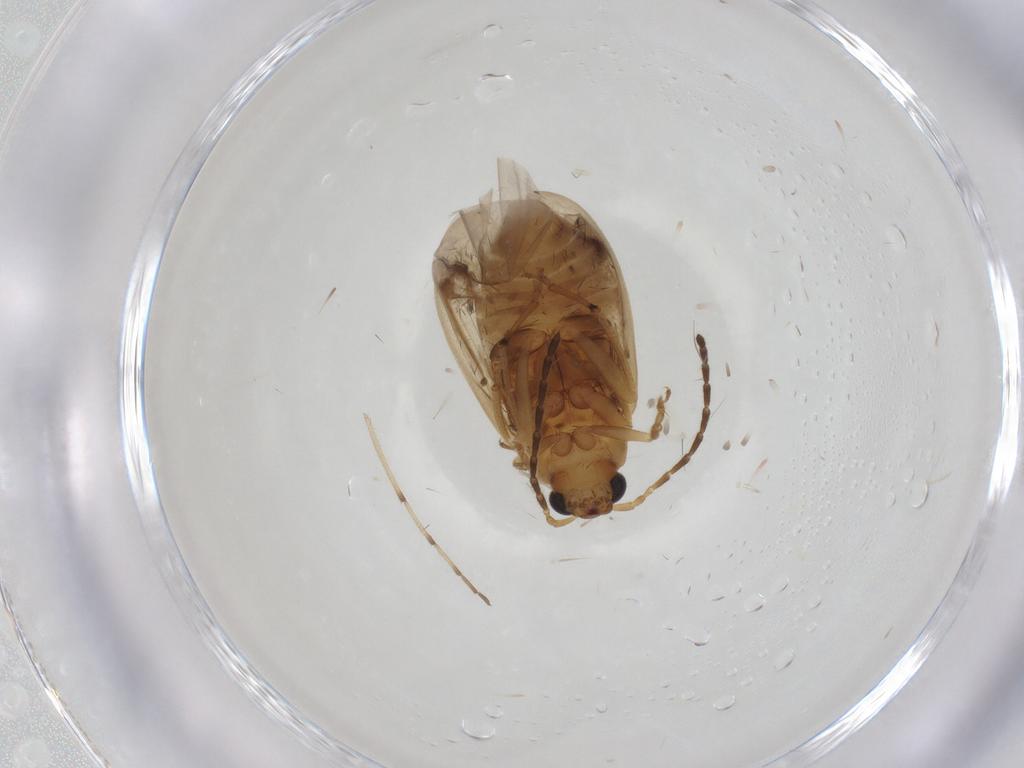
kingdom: Animalia
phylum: Arthropoda
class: Insecta
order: Coleoptera
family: Chrysomelidae
